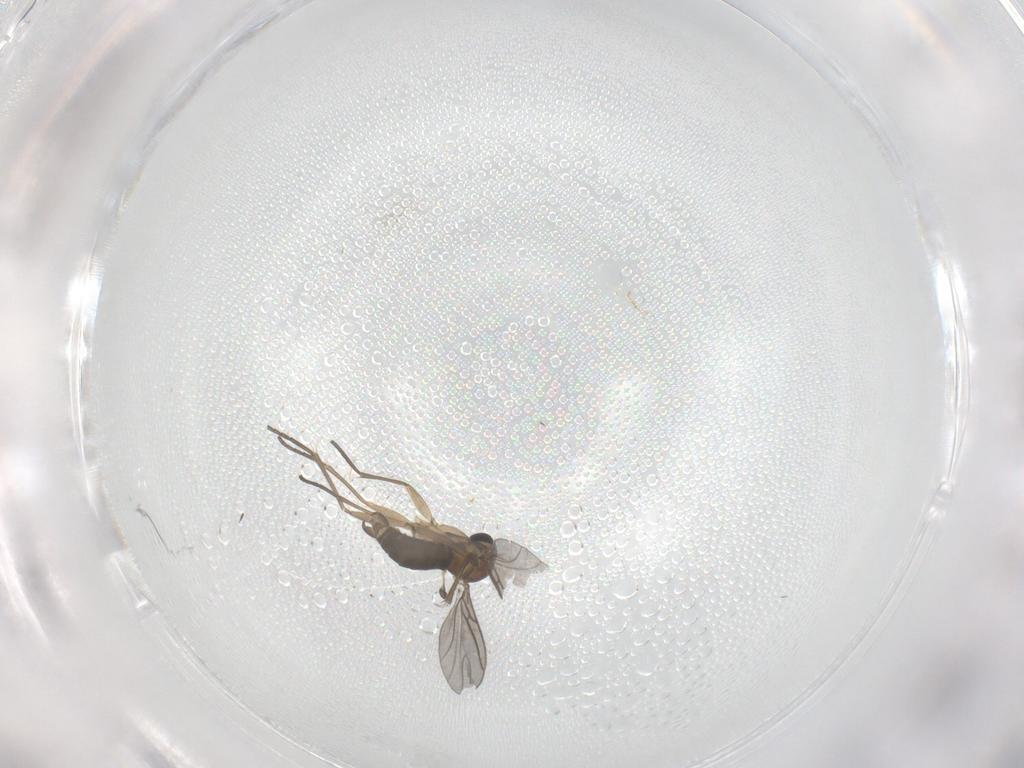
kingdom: Animalia
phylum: Arthropoda
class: Insecta
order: Diptera
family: Sciaridae
